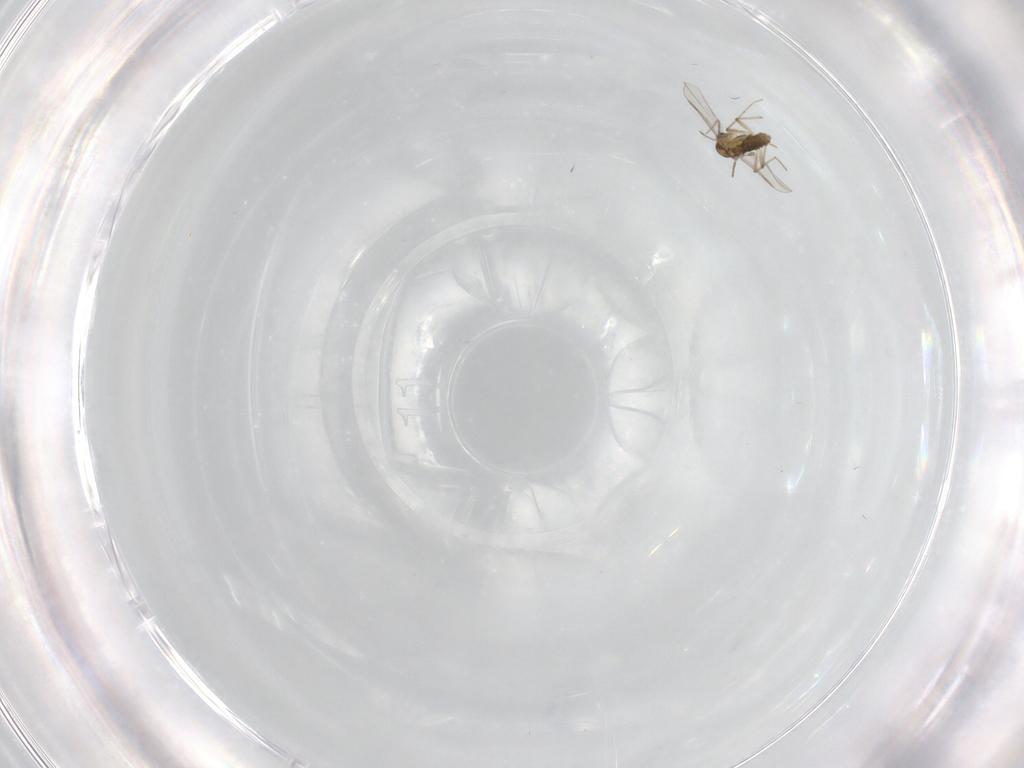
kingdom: Animalia
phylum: Arthropoda
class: Insecta
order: Diptera
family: Chironomidae
